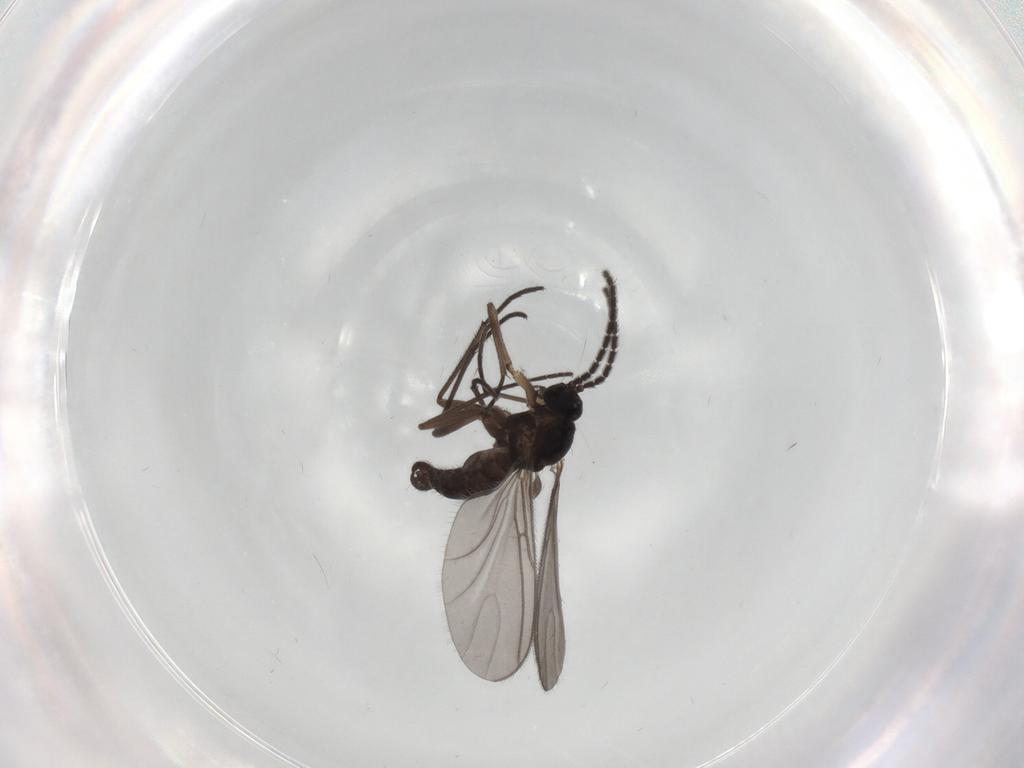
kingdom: Animalia
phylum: Arthropoda
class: Insecta
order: Diptera
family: Sciaridae
